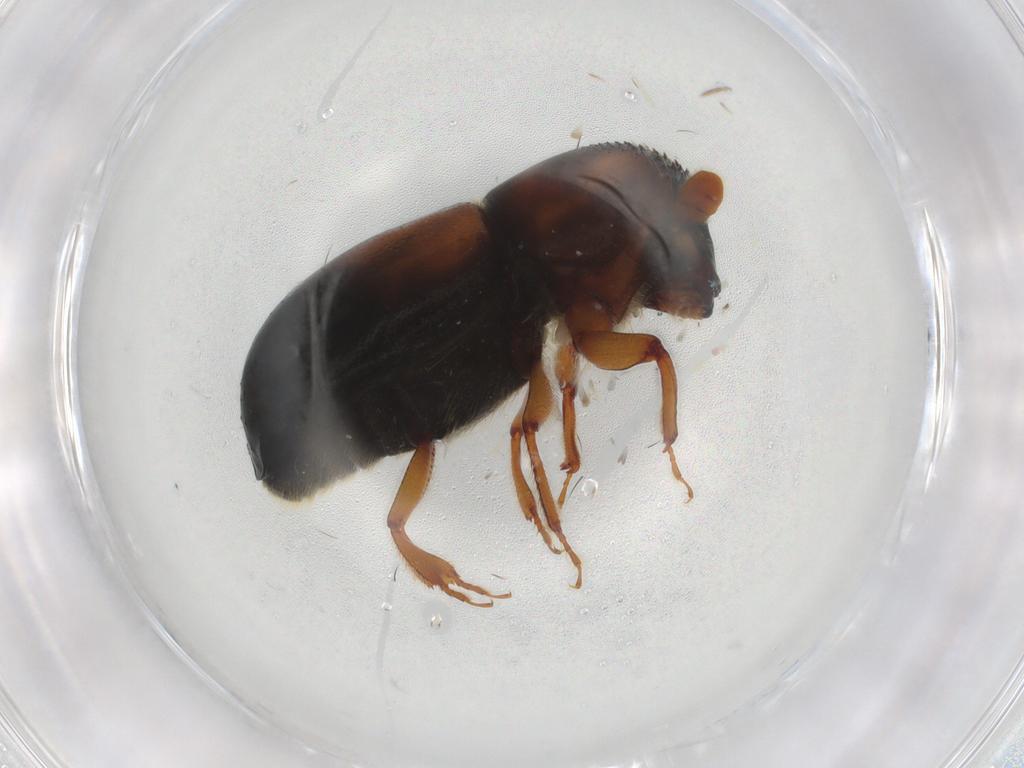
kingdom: Animalia
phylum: Arthropoda
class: Insecta
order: Coleoptera
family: Curculionidae
